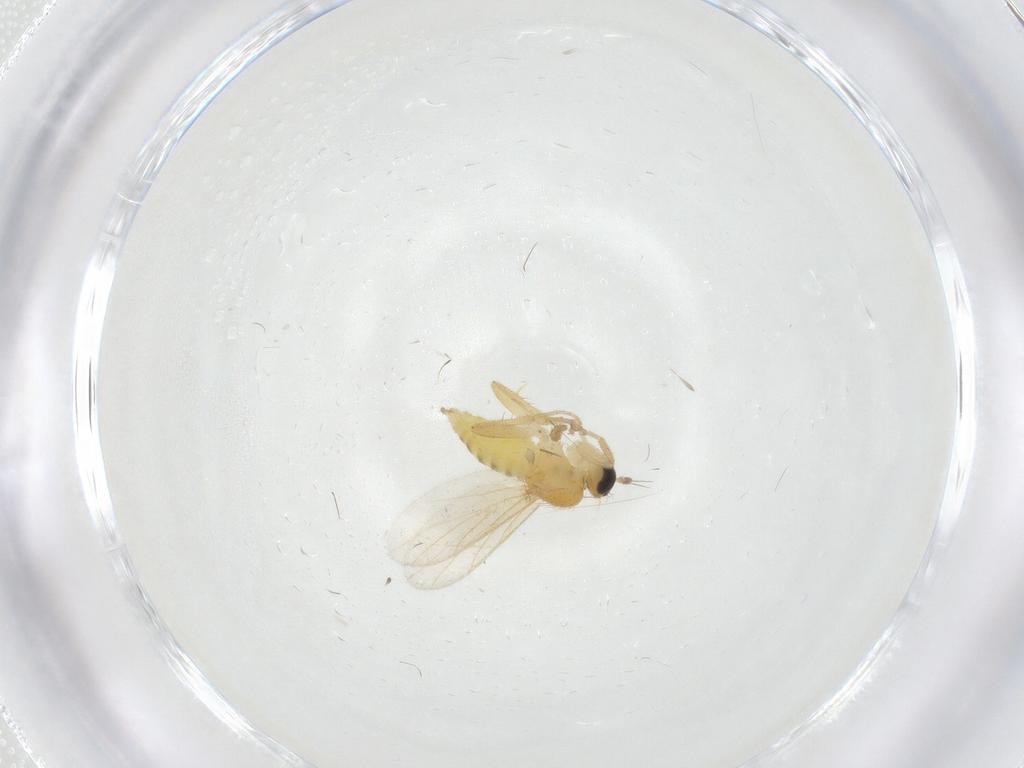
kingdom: Animalia
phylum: Arthropoda
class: Insecta
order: Diptera
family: Hybotidae
